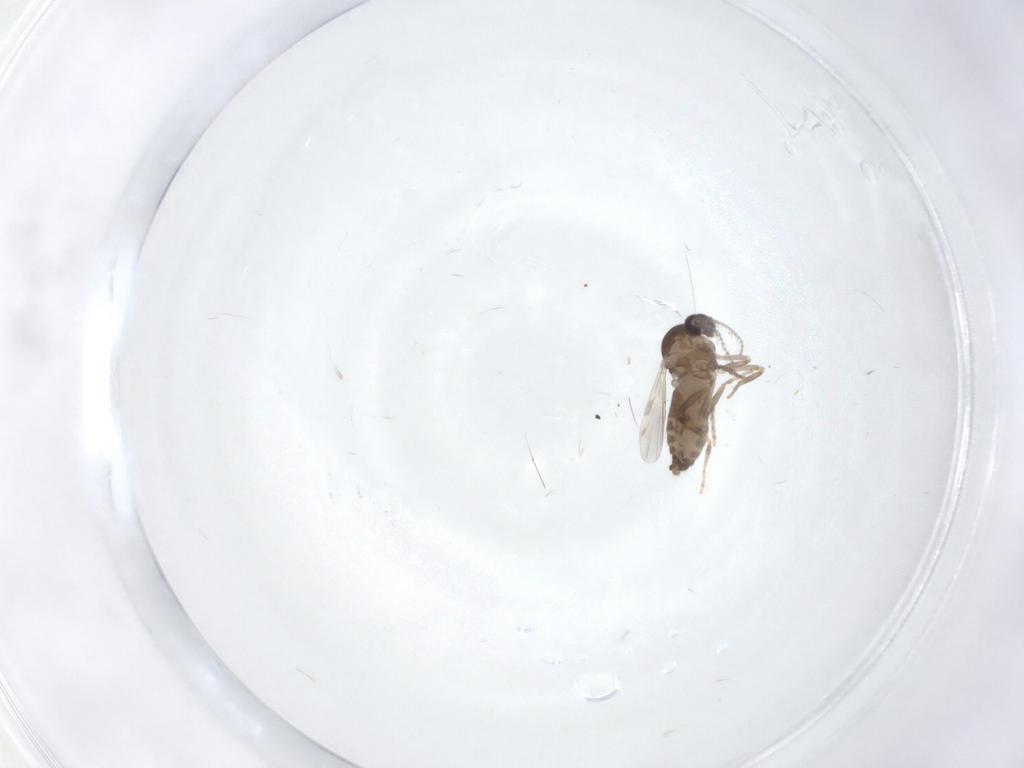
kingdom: Animalia
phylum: Arthropoda
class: Insecta
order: Diptera
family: Ceratopogonidae
